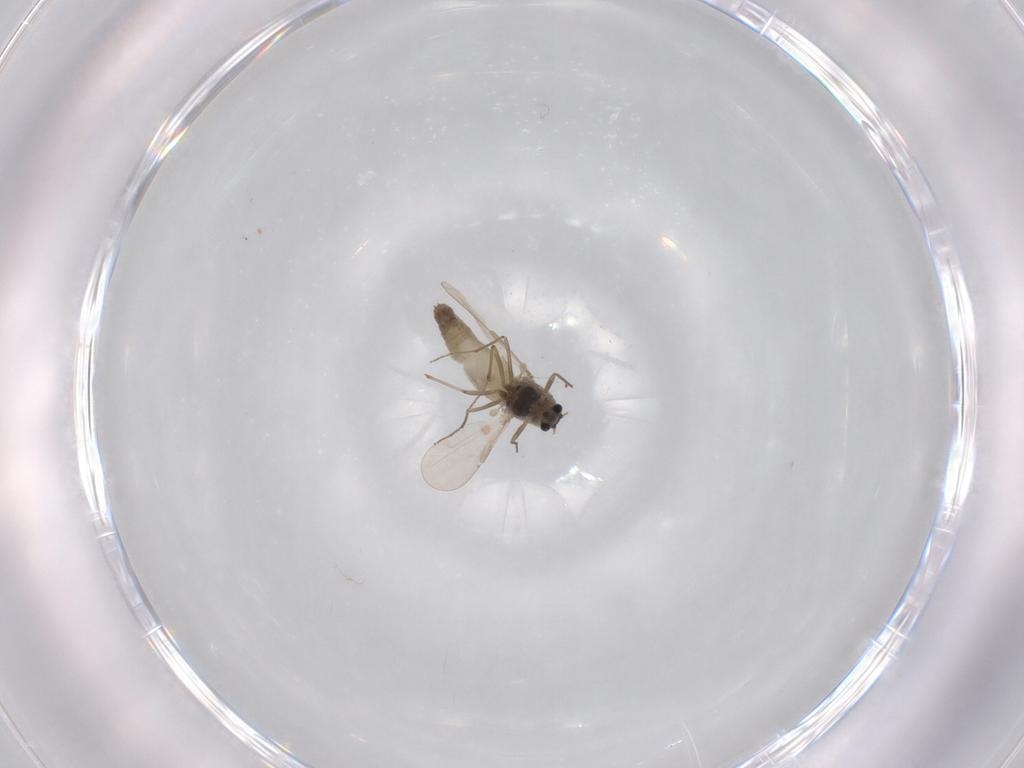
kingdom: Animalia
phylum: Arthropoda
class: Insecta
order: Diptera
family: Chironomidae
